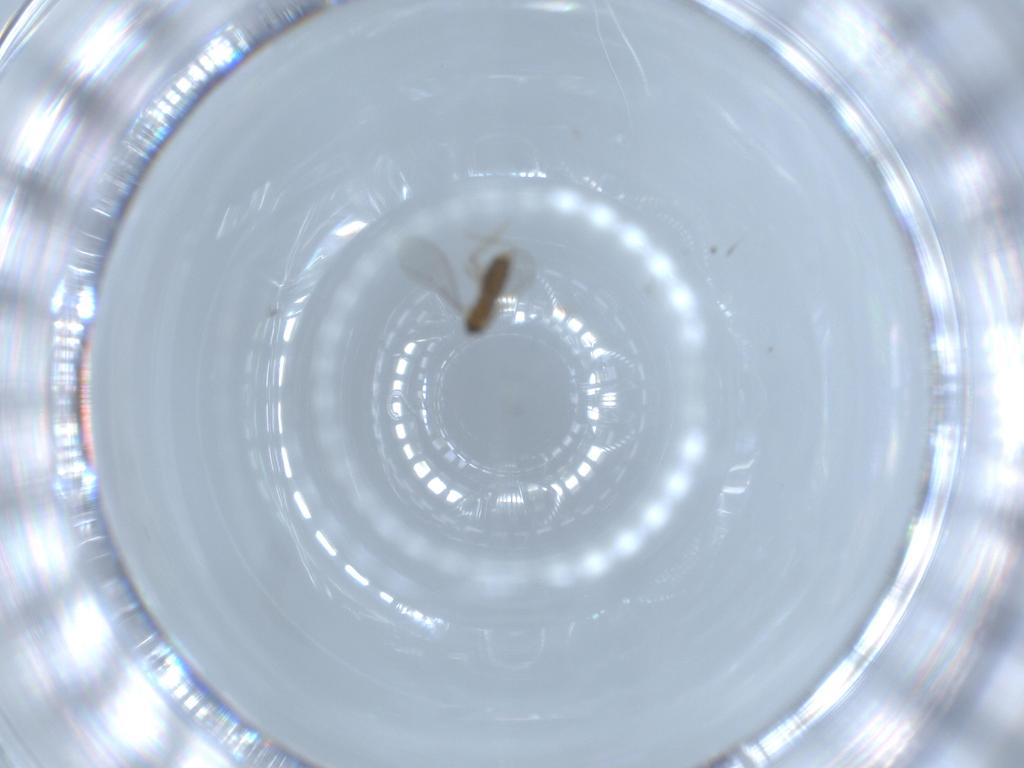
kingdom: Animalia
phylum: Arthropoda
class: Insecta
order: Diptera
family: Cecidomyiidae
